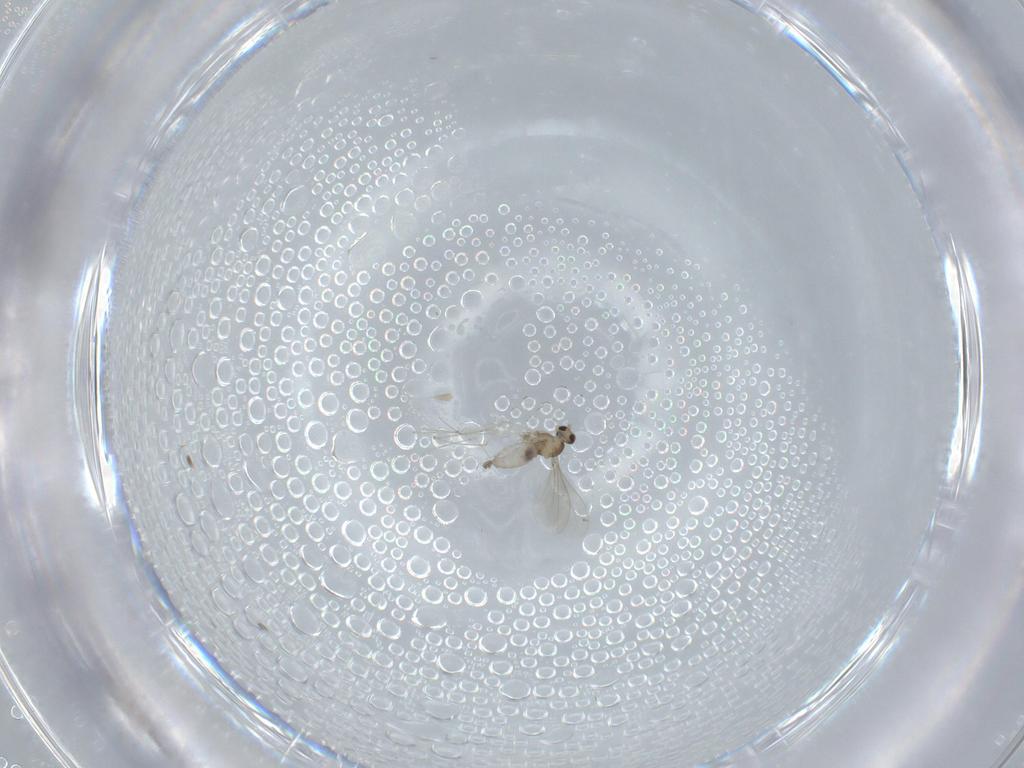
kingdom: Animalia
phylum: Arthropoda
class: Insecta
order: Diptera
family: Cecidomyiidae
